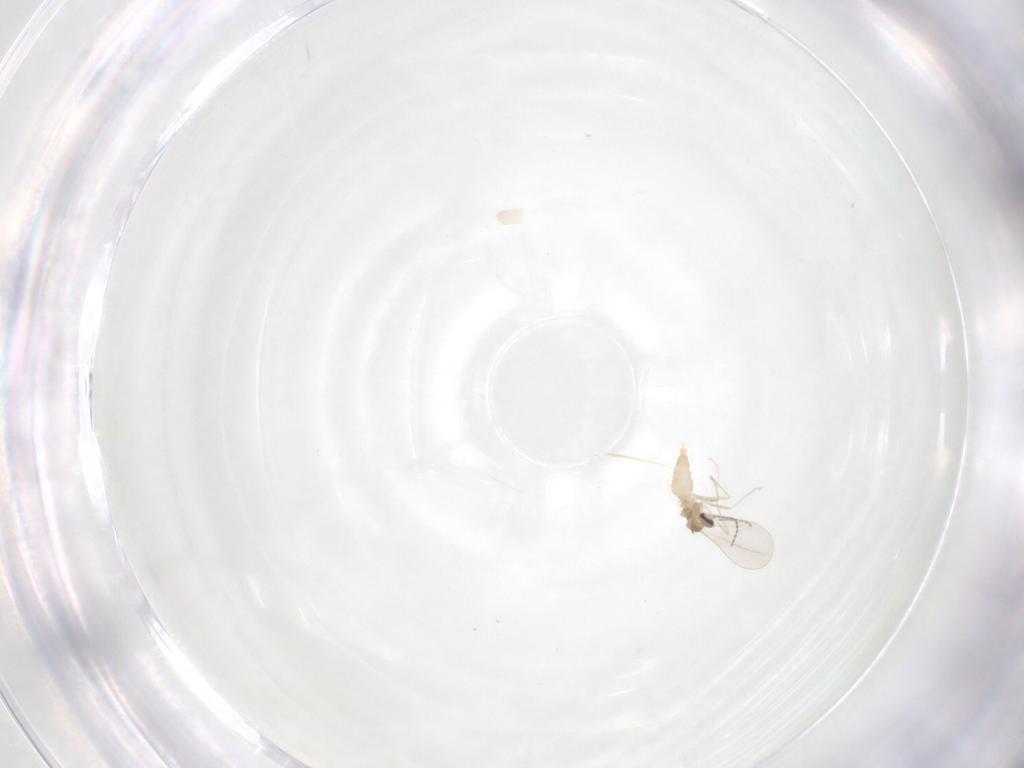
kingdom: Animalia
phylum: Arthropoda
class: Insecta
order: Diptera
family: Cecidomyiidae
